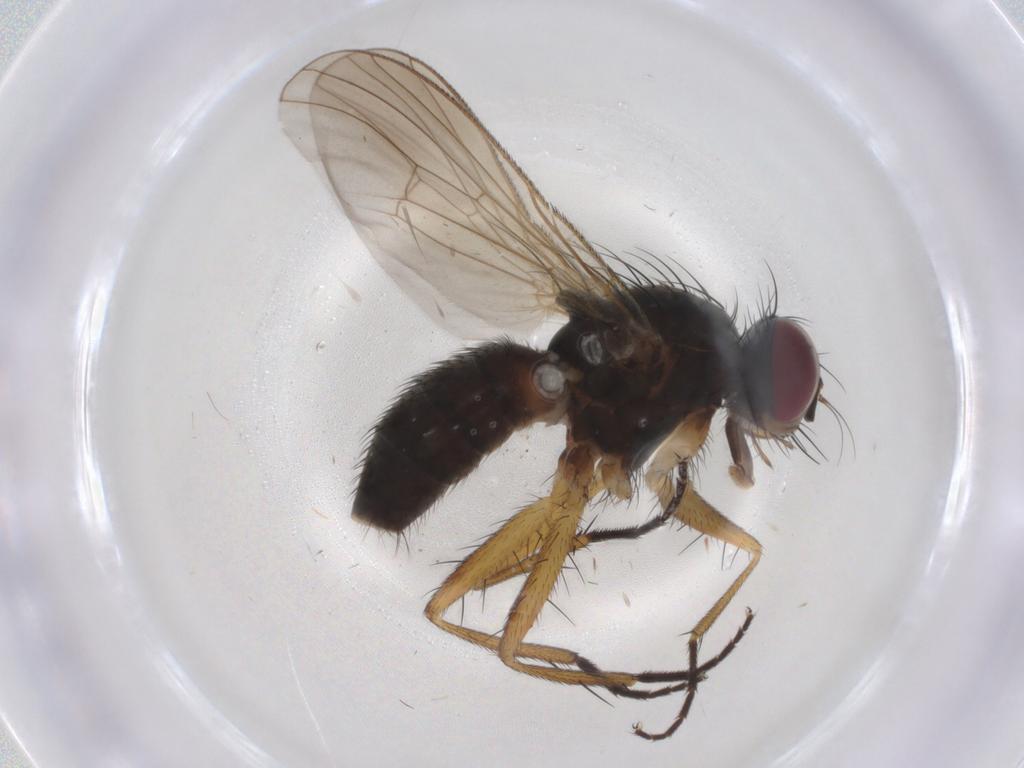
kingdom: Animalia
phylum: Arthropoda
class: Insecta
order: Diptera
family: Muscidae
